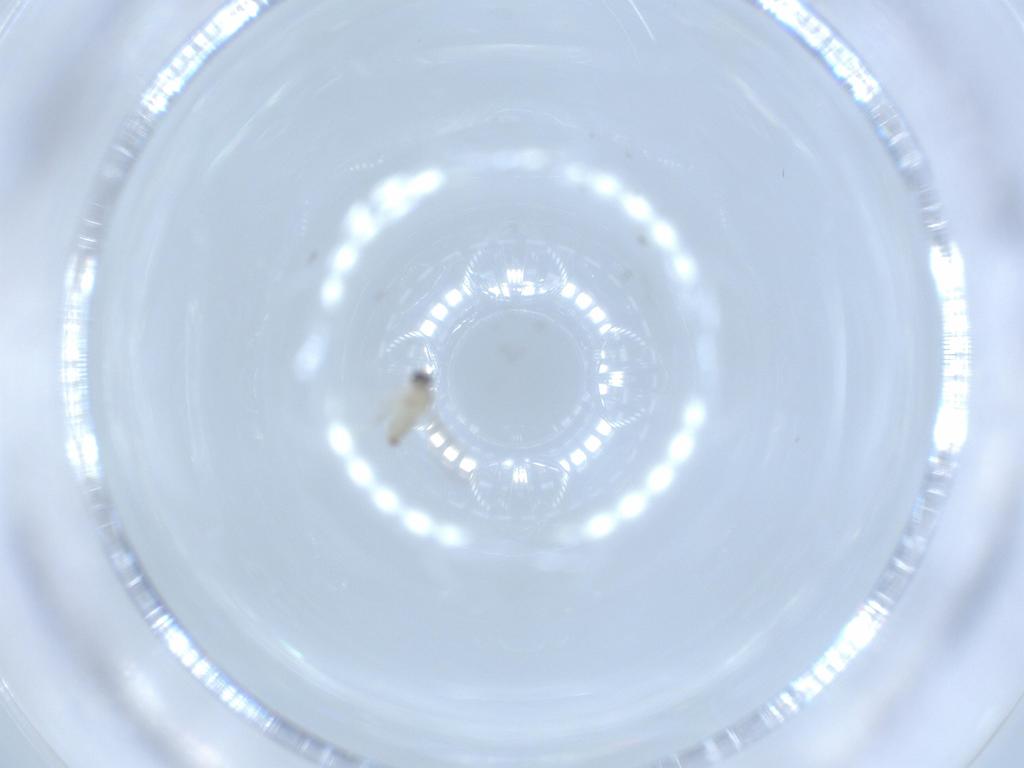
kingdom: Animalia
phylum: Arthropoda
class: Insecta
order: Diptera
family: Cecidomyiidae
